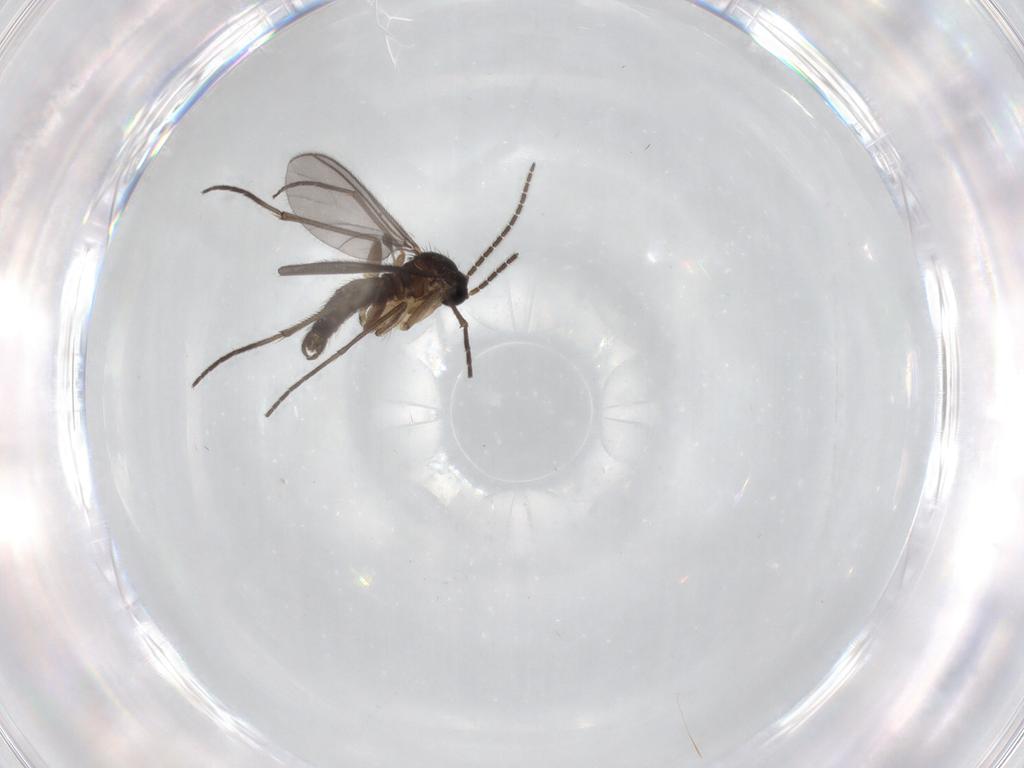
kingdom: Animalia
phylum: Arthropoda
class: Insecta
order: Diptera
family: Sciaridae
